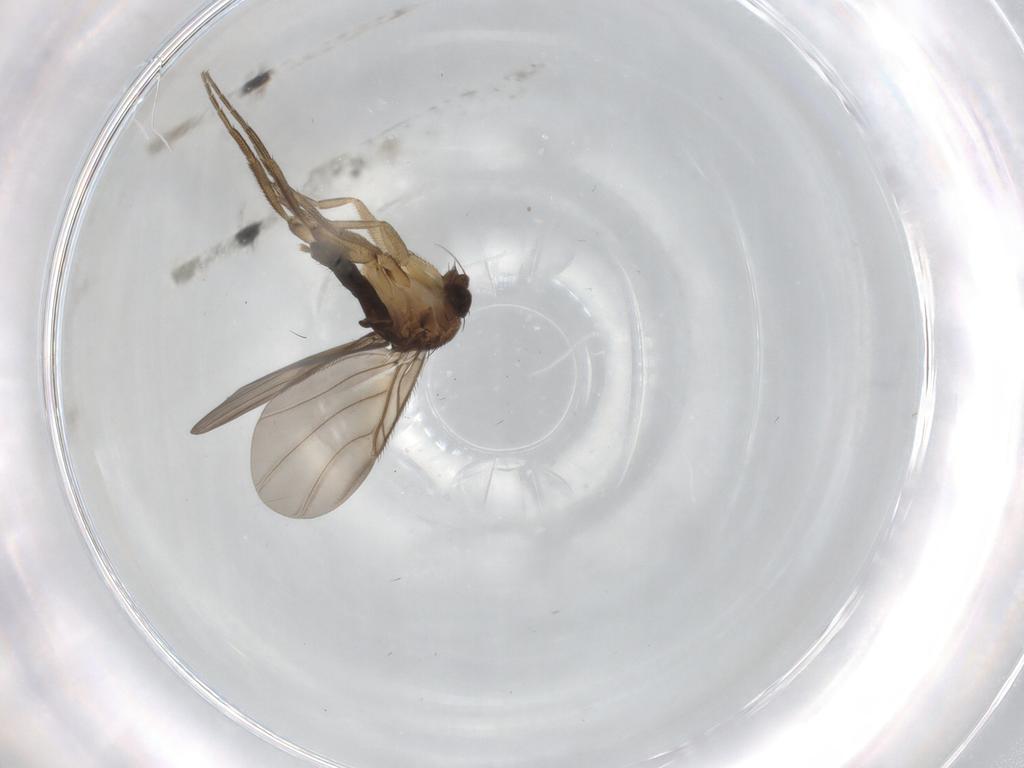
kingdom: Animalia
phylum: Arthropoda
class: Insecta
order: Diptera
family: Phoridae
